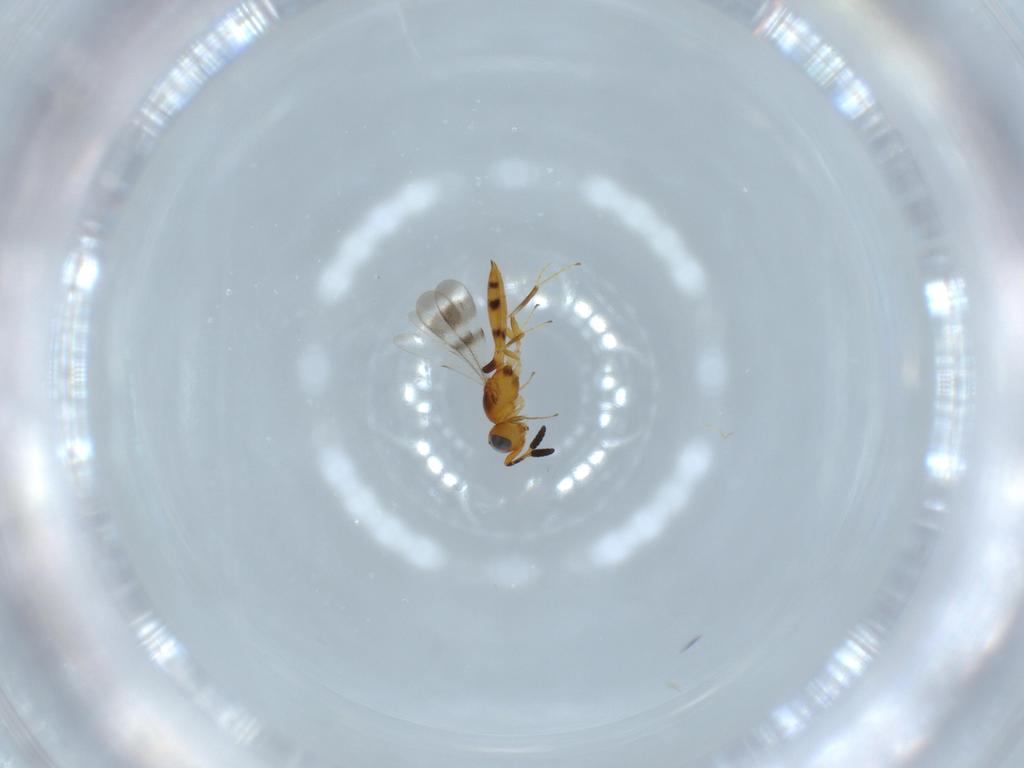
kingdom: Animalia
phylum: Arthropoda
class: Insecta
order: Hymenoptera
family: Scelionidae
